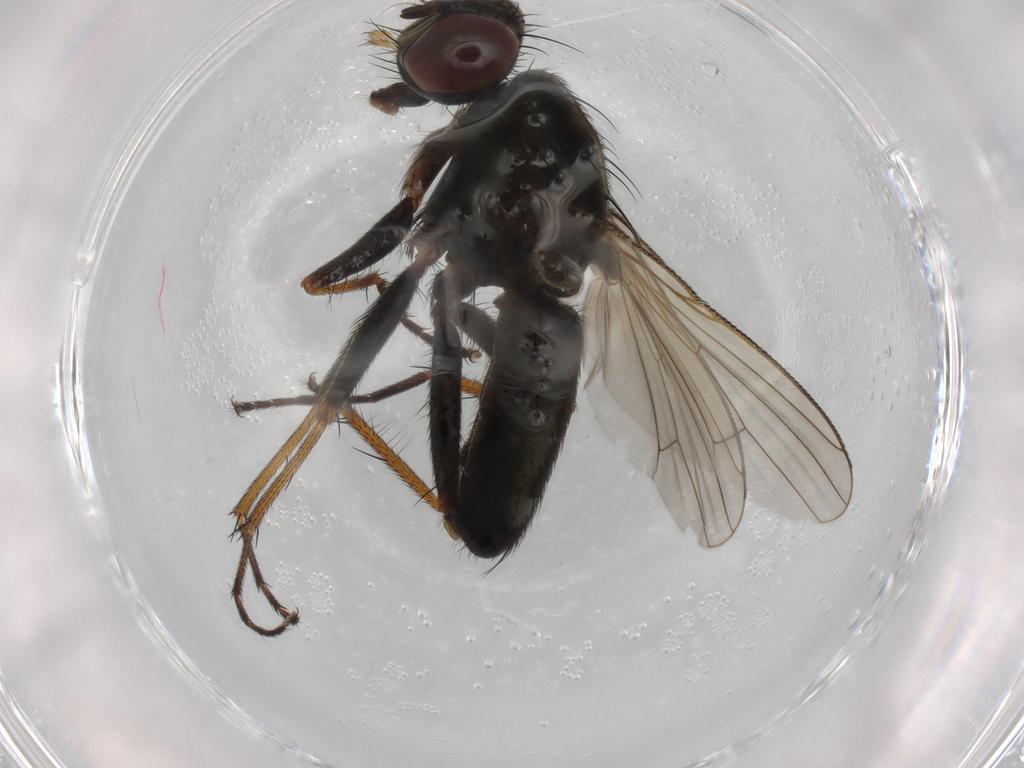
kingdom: Animalia
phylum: Arthropoda
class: Insecta
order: Diptera
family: Muscidae
